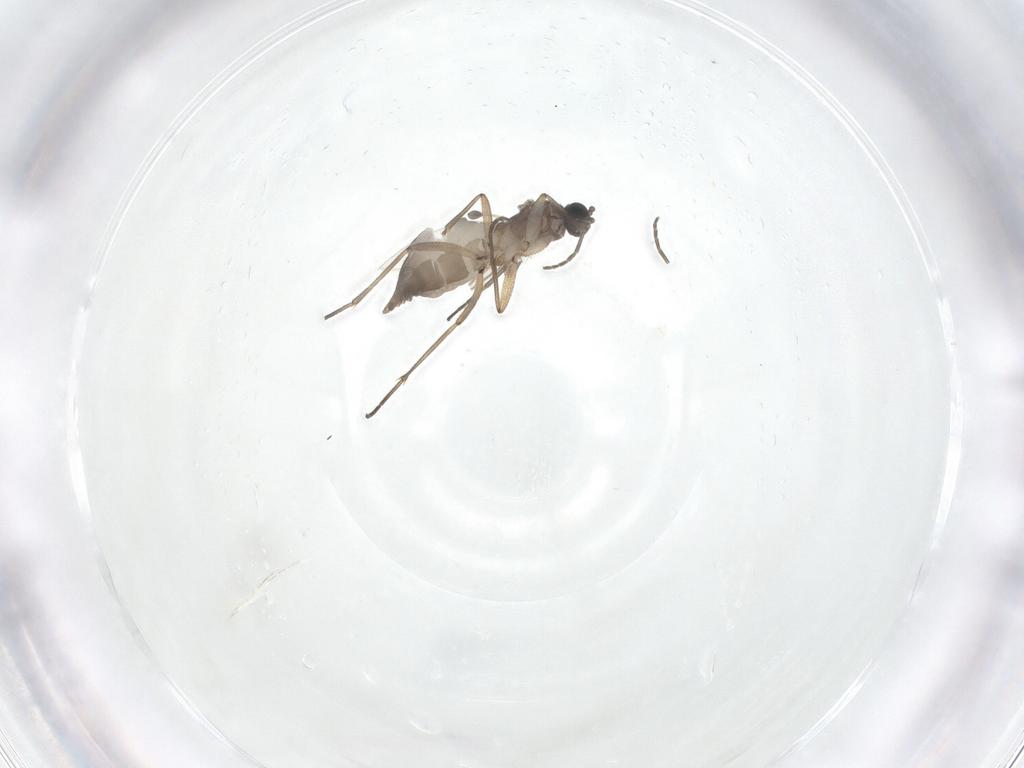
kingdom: Animalia
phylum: Arthropoda
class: Insecta
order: Diptera
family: Sciaridae
